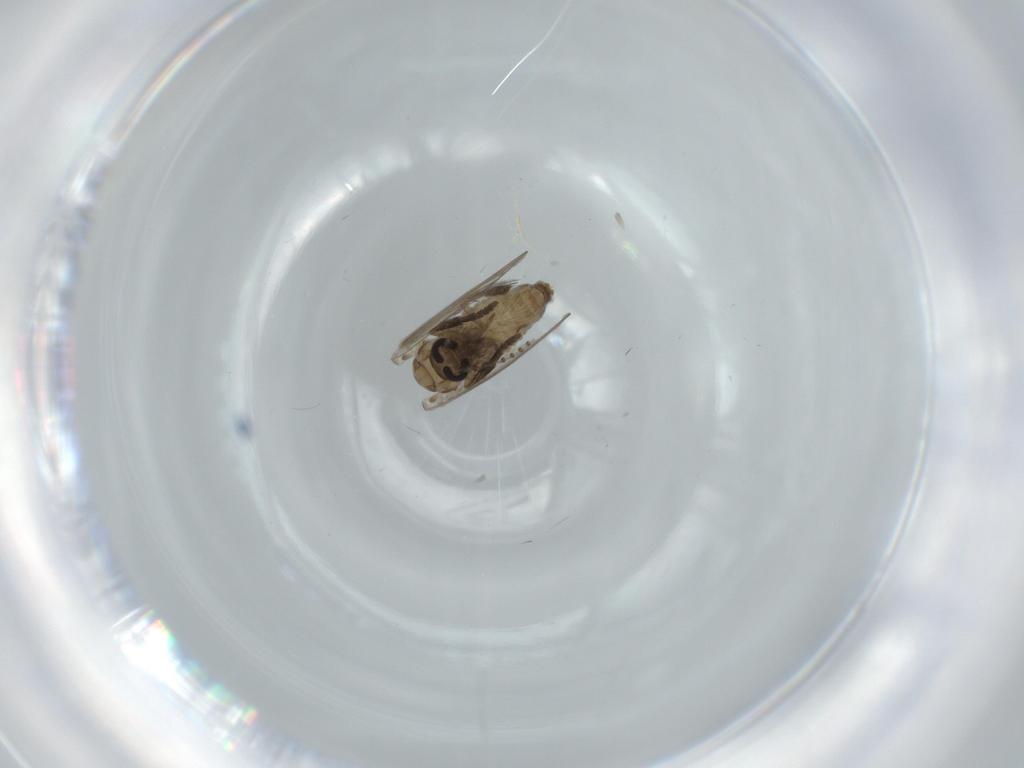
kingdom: Animalia
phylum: Arthropoda
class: Insecta
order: Diptera
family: Psychodidae
